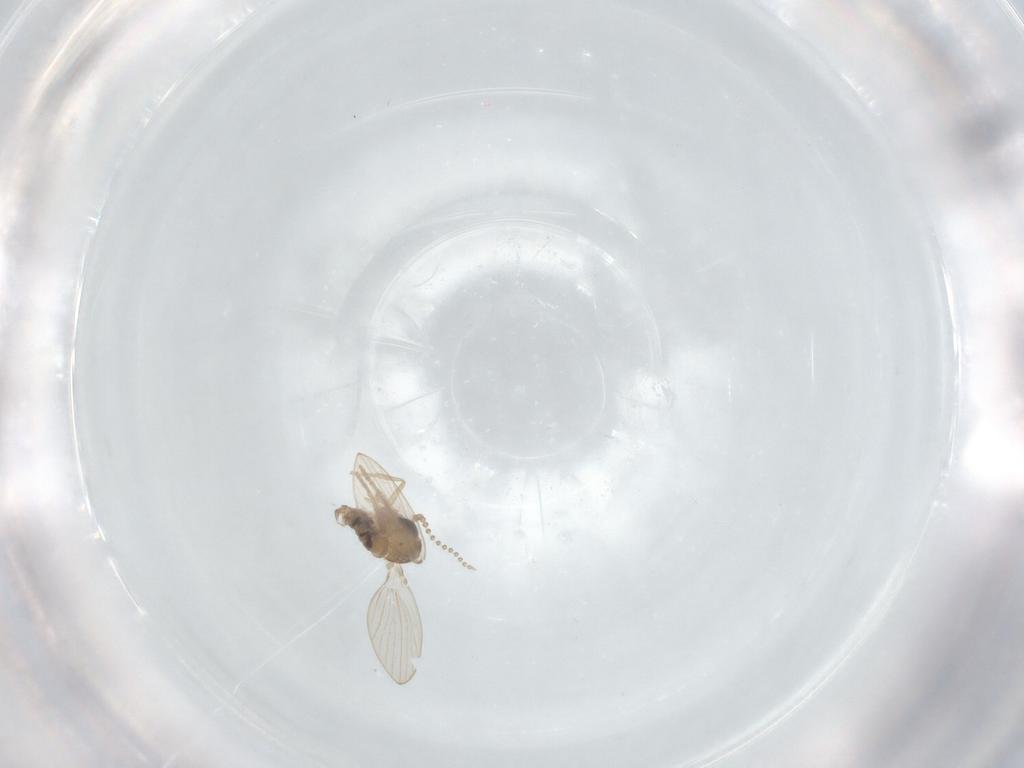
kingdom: Animalia
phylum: Arthropoda
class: Insecta
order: Diptera
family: Psychodidae
